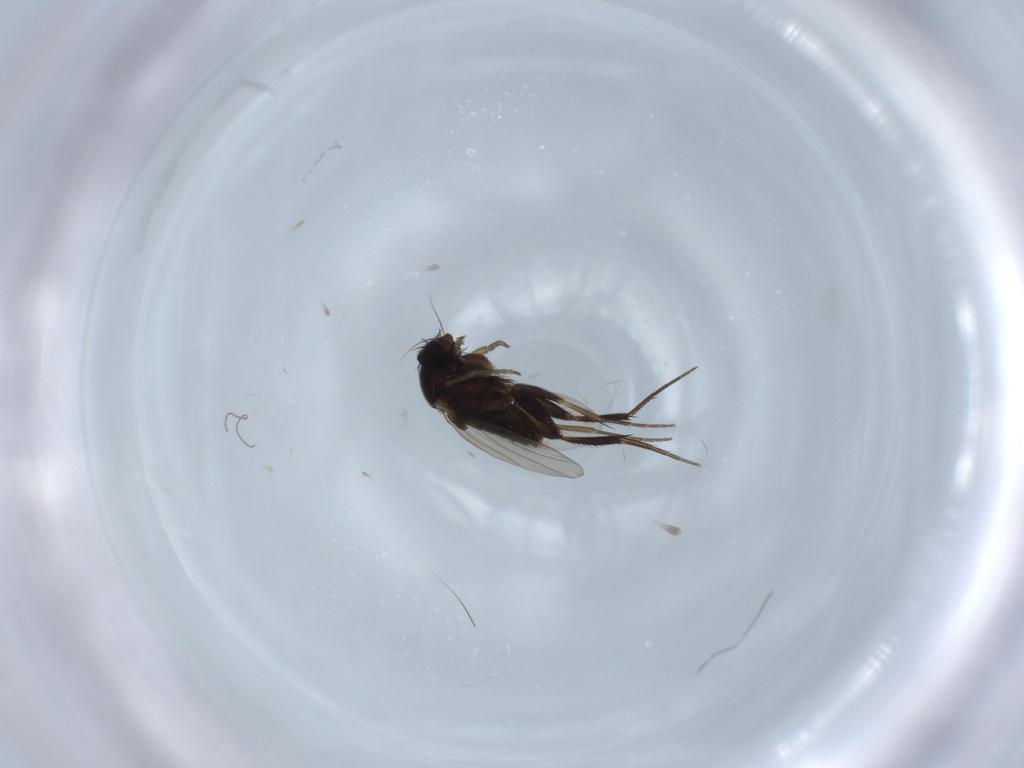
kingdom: Animalia
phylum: Arthropoda
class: Insecta
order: Diptera
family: Phoridae
